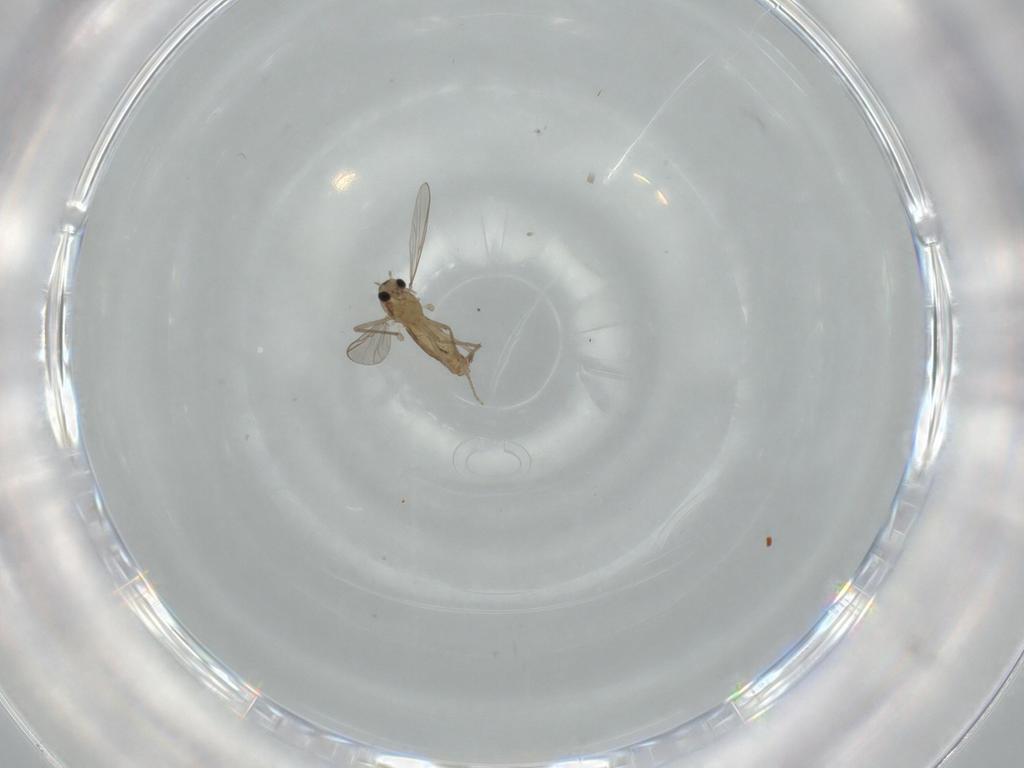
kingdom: Animalia
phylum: Arthropoda
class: Insecta
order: Diptera
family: Chironomidae
